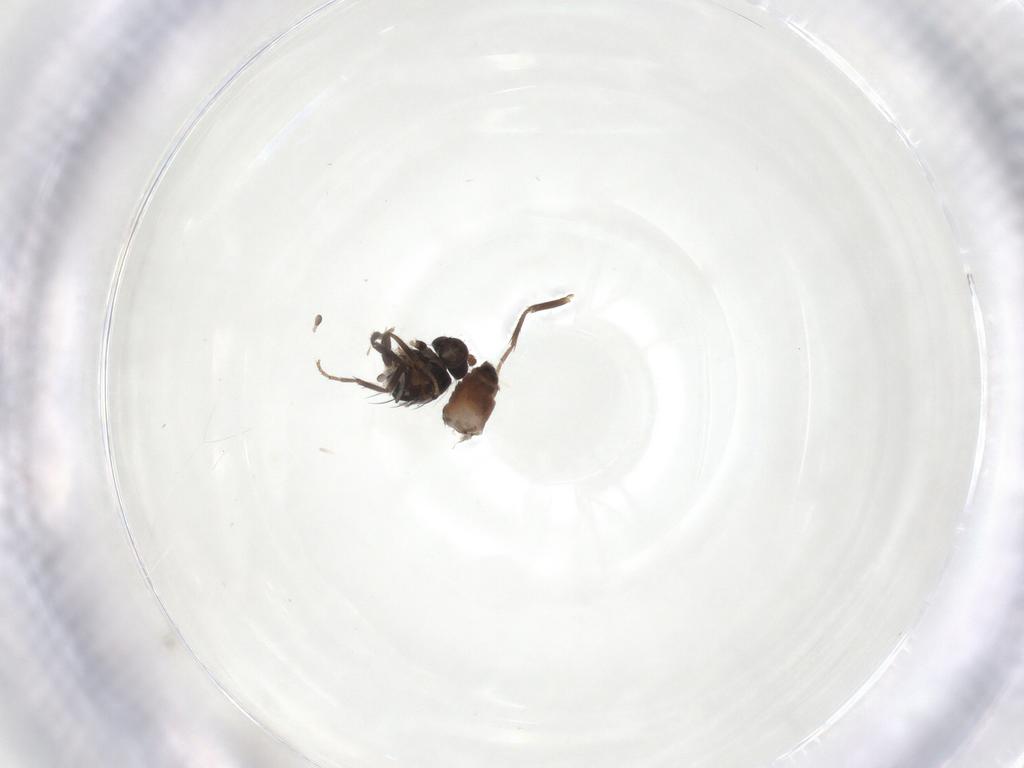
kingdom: Animalia
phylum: Arthropoda
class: Insecta
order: Diptera
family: Sphaeroceridae
